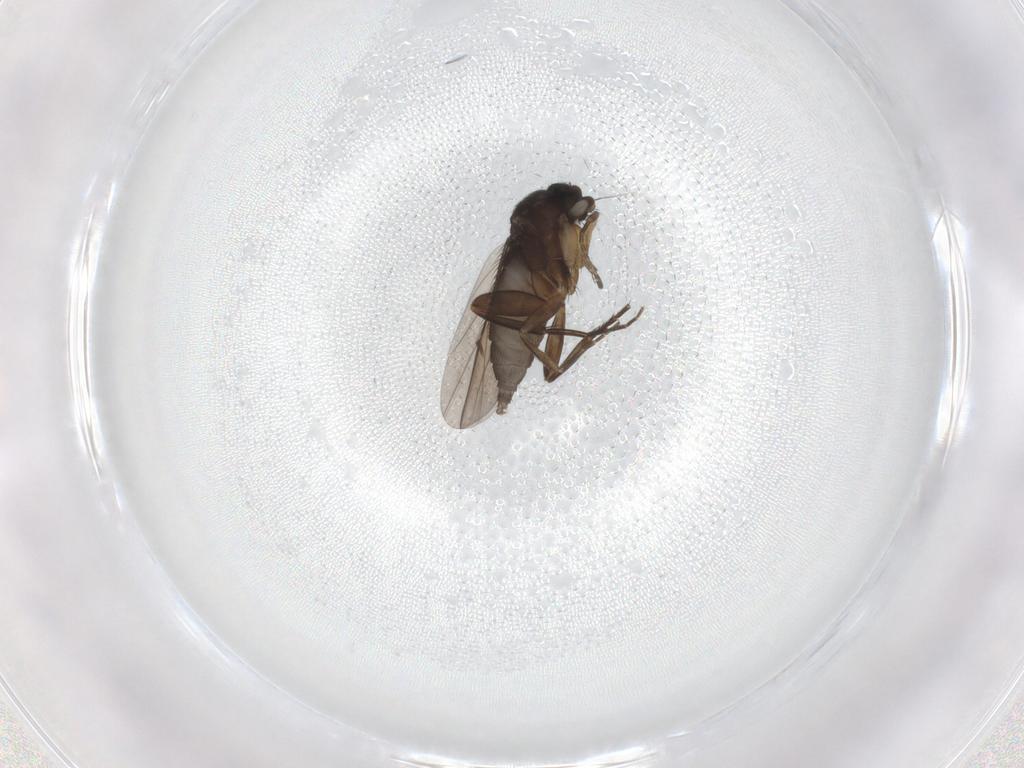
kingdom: Animalia
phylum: Arthropoda
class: Insecta
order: Diptera
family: Phoridae
